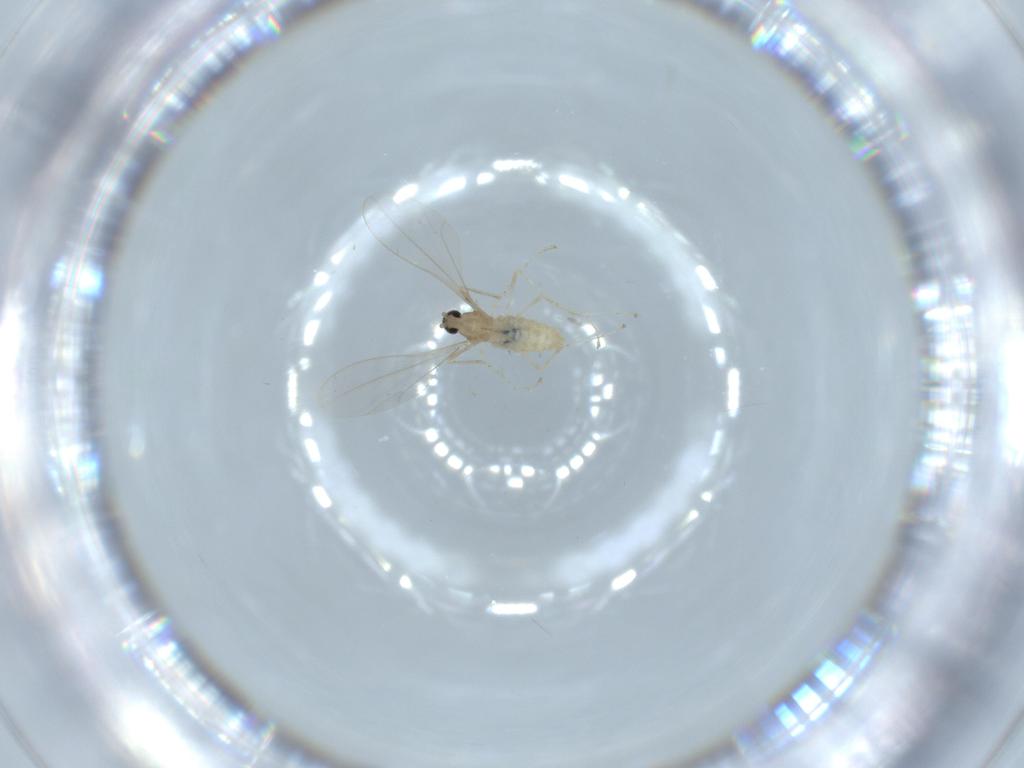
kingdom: Animalia
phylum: Arthropoda
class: Insecta
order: Diptera
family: Cecidomyiidae
